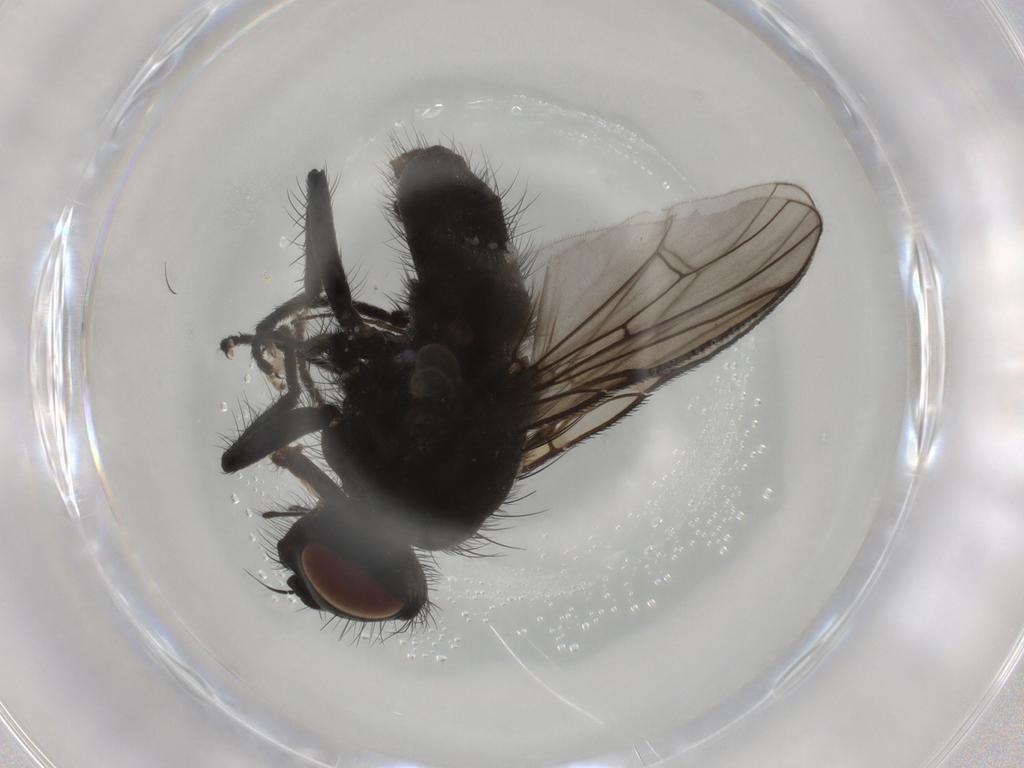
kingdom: Animalia
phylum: Arthropoda
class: Insecta
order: Diptera
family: Muscidae
